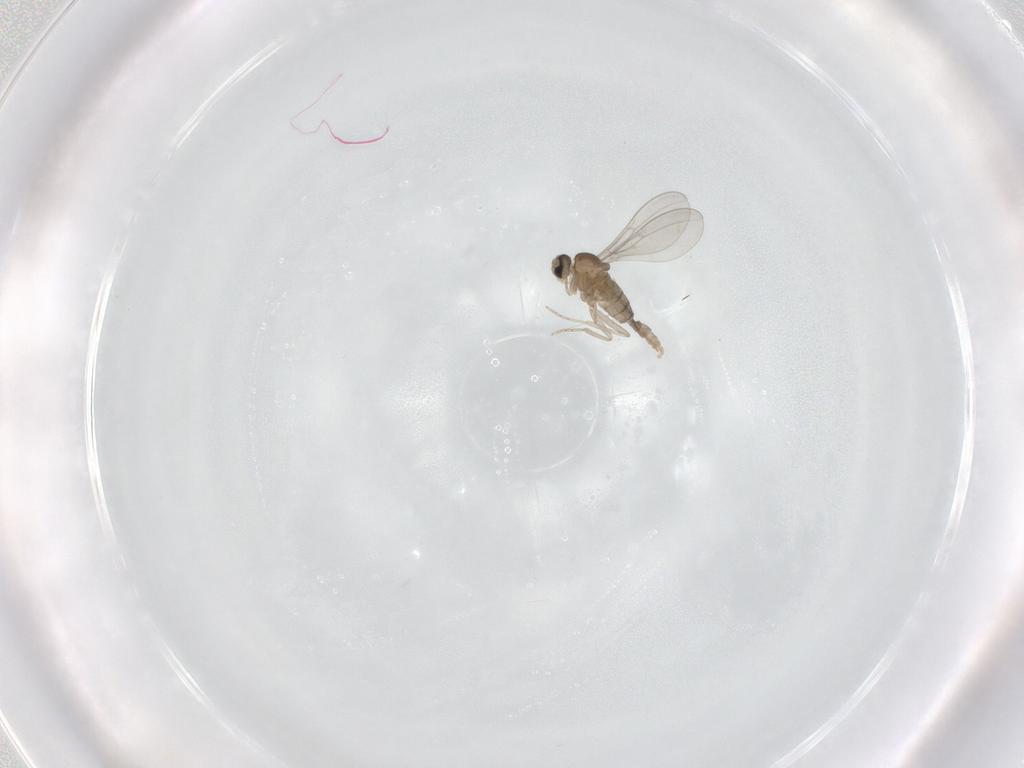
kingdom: Animalia
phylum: Arthropoda
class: Insecta
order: Diptera
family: Cecidomyiidae
